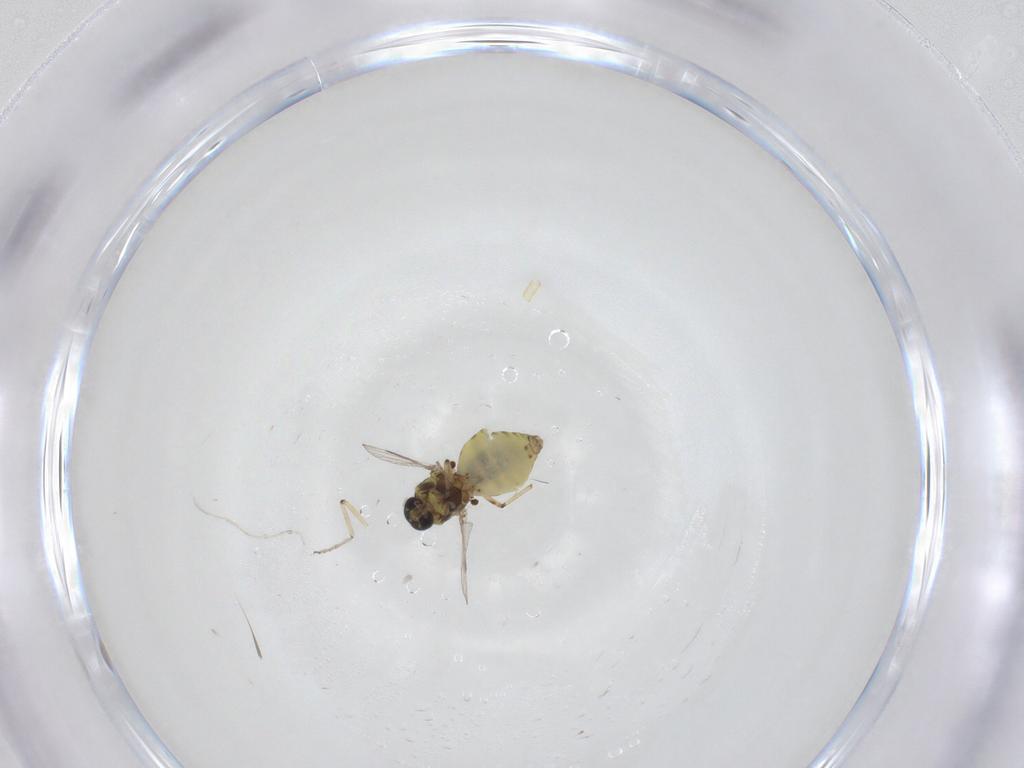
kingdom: Animalia
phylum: Arthropoda
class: Insecta
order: Diptera
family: Ceratopogonidae
